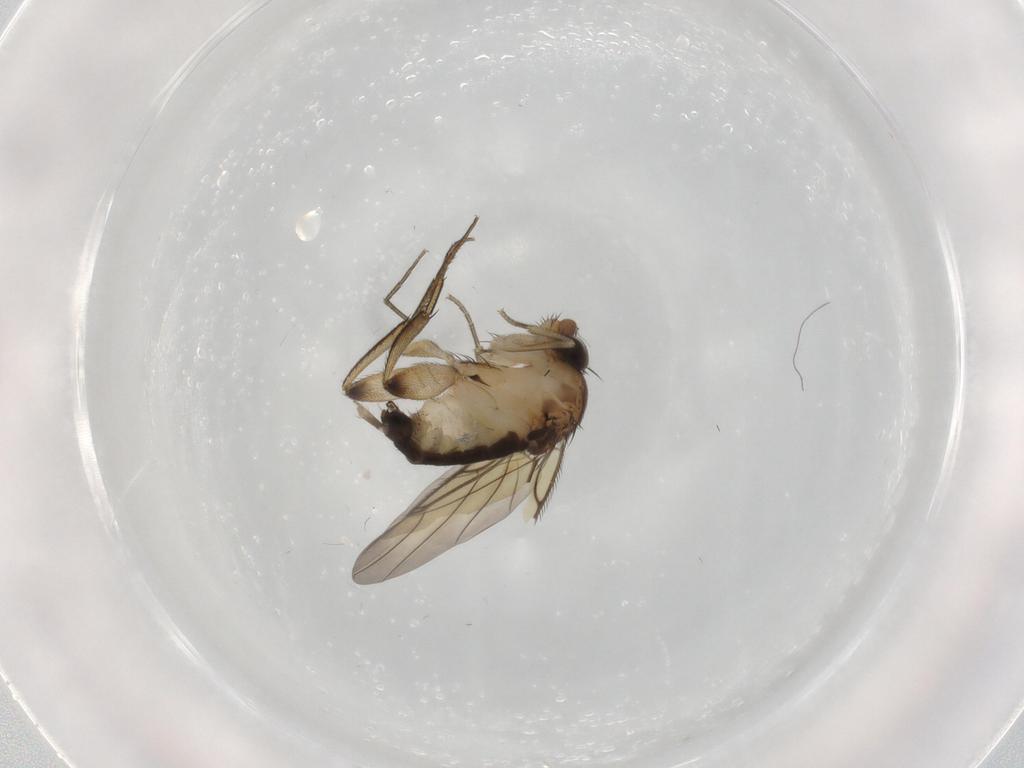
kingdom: Animalia
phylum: Arthropoda
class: Insecta
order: Diptera
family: Phoridae
